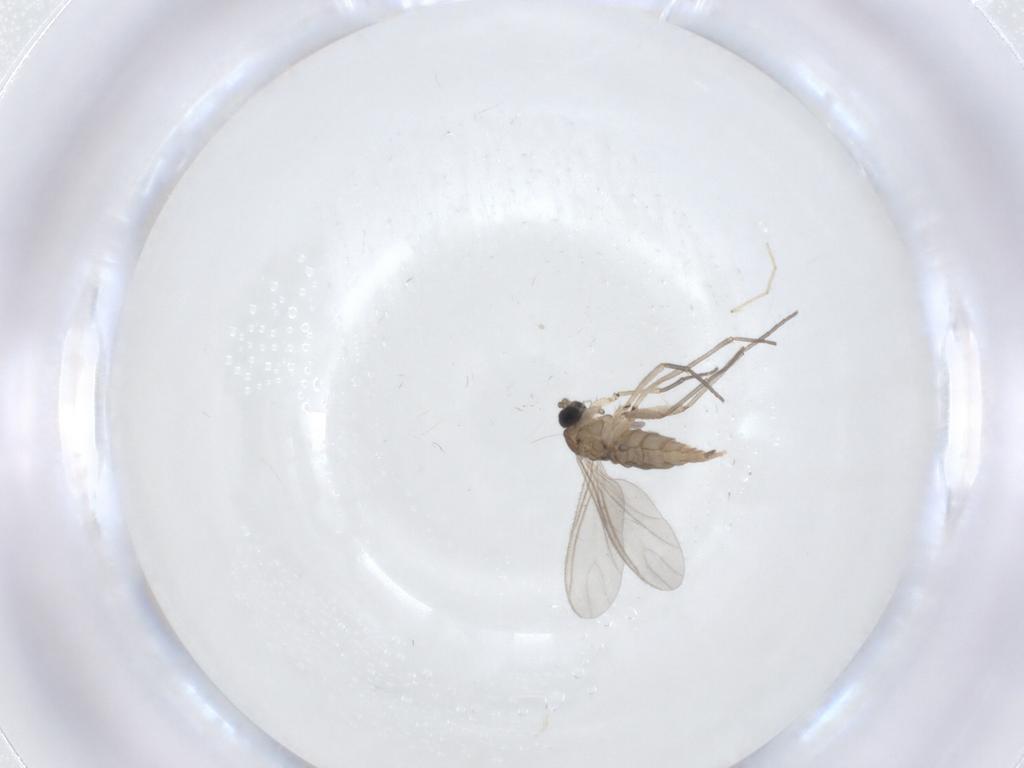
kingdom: Animalia
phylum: Arthropoda
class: Insecta
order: Diptera
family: Sciaridae
